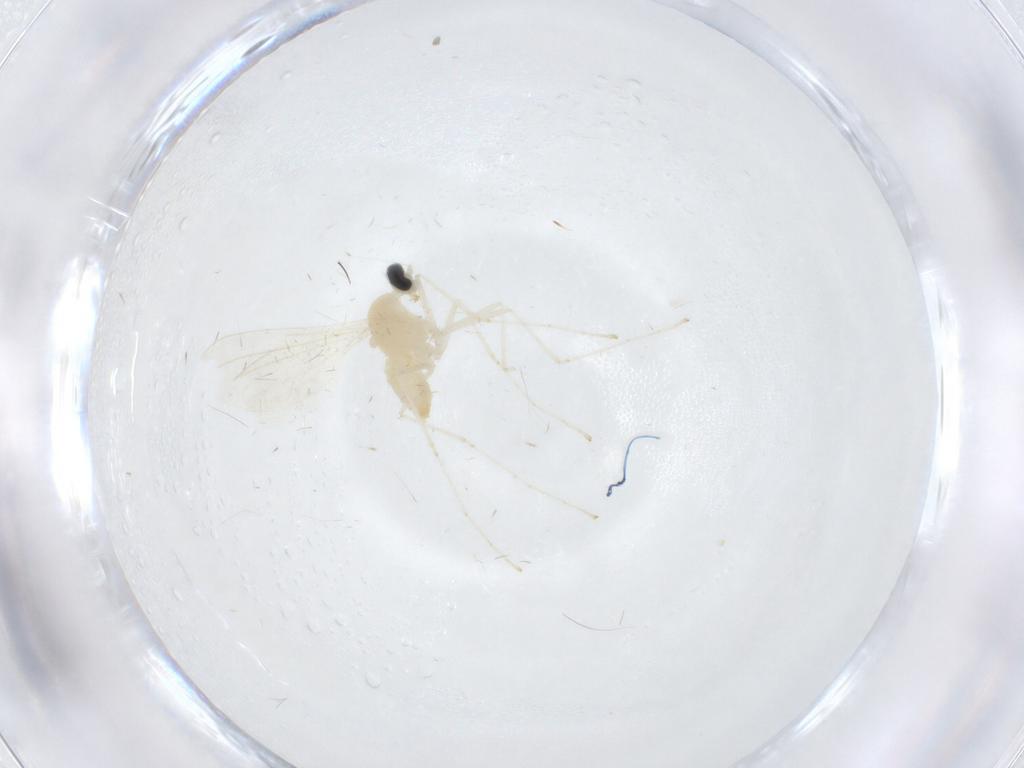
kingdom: Animalia
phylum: Arthropoda
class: Insecta
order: Diptera
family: Cecidomyiidae
